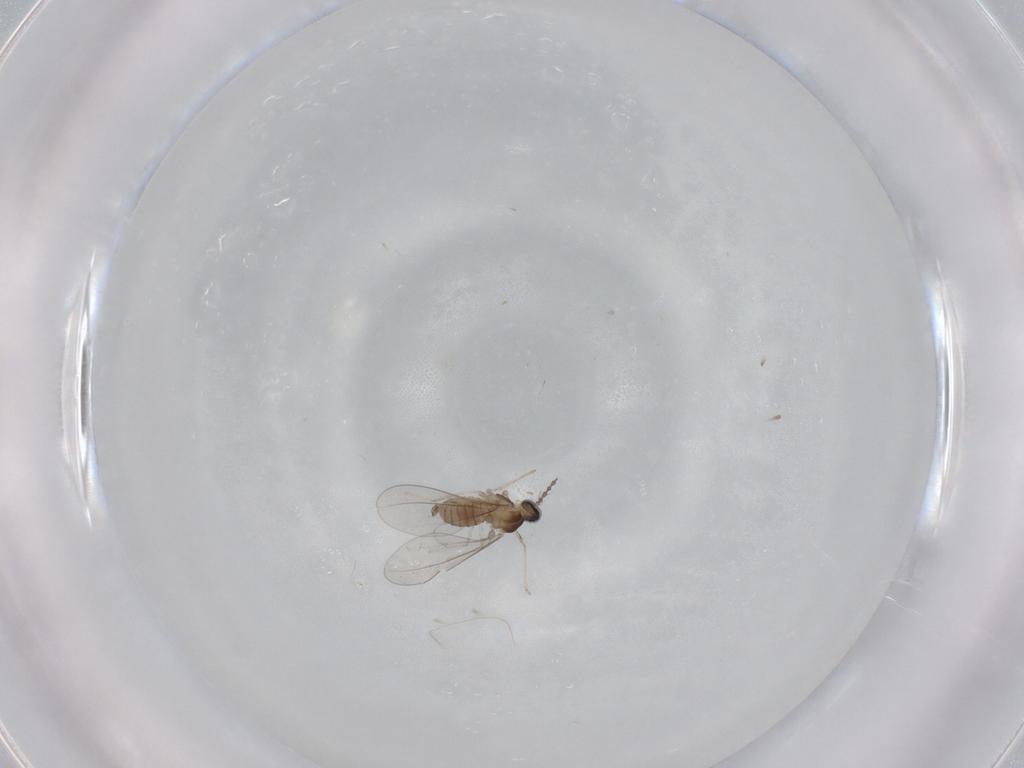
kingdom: Animalia
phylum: Arthropoda
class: Insecta
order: Diptera
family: Cecidomyiidae
